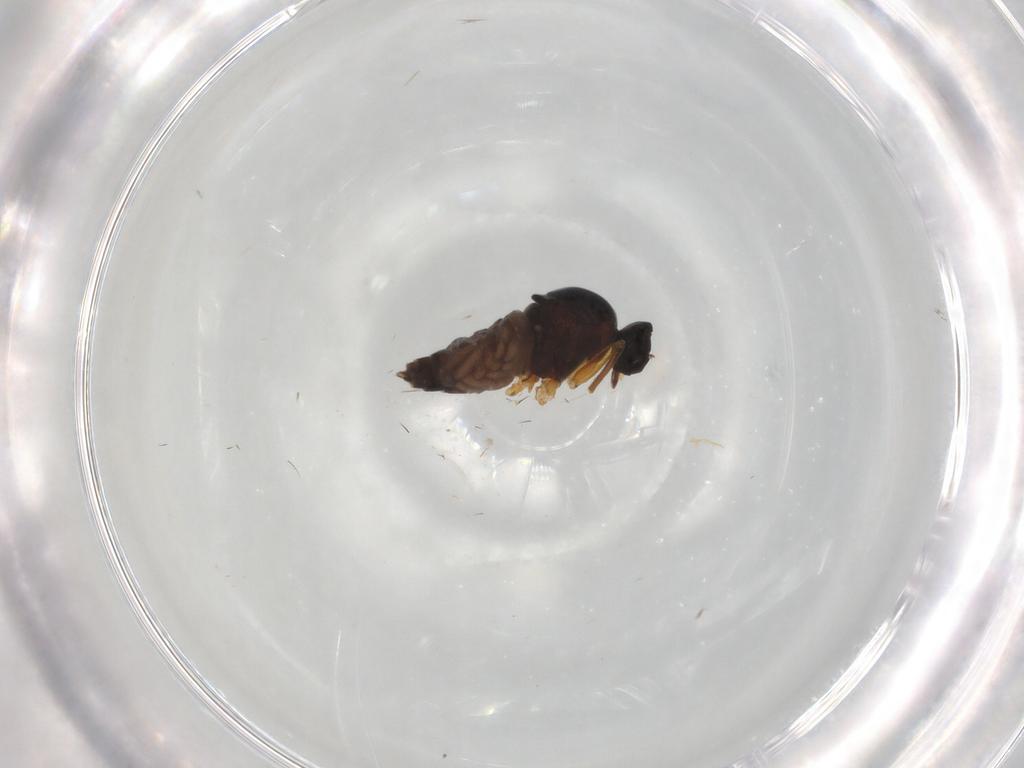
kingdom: Animalia
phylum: Arthropoda
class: Insecta
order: Diptera
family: Hybotidae
